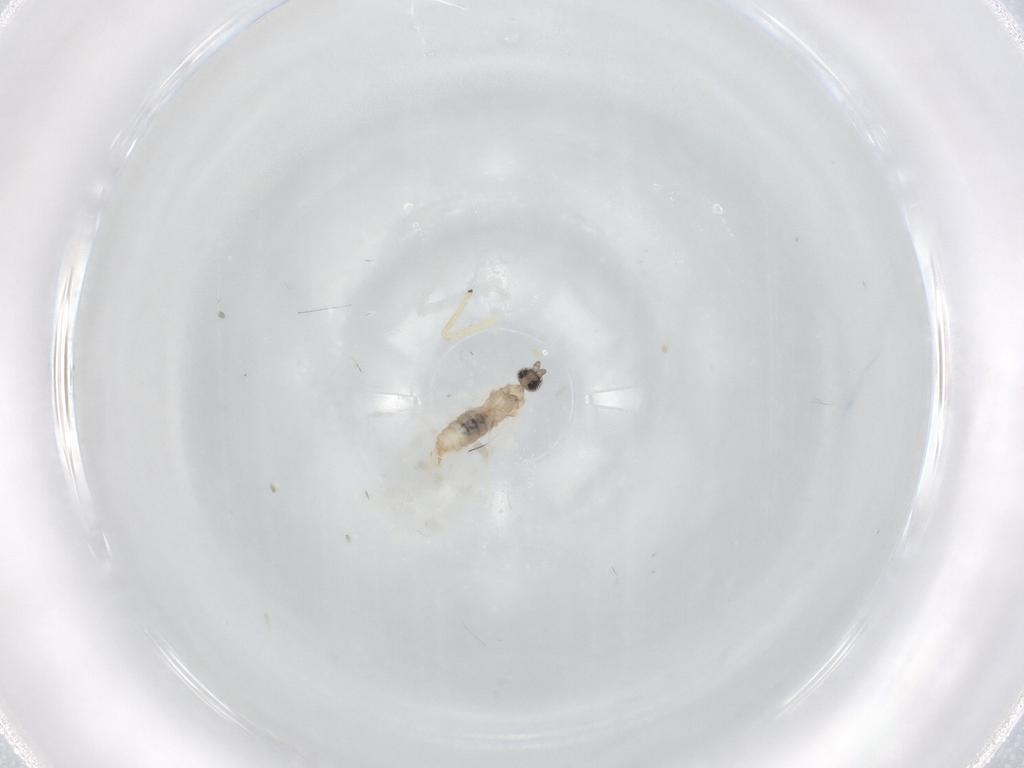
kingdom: Animalia
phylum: Arthropoda
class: Insecta
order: Diptera
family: Cecidomyiidae
